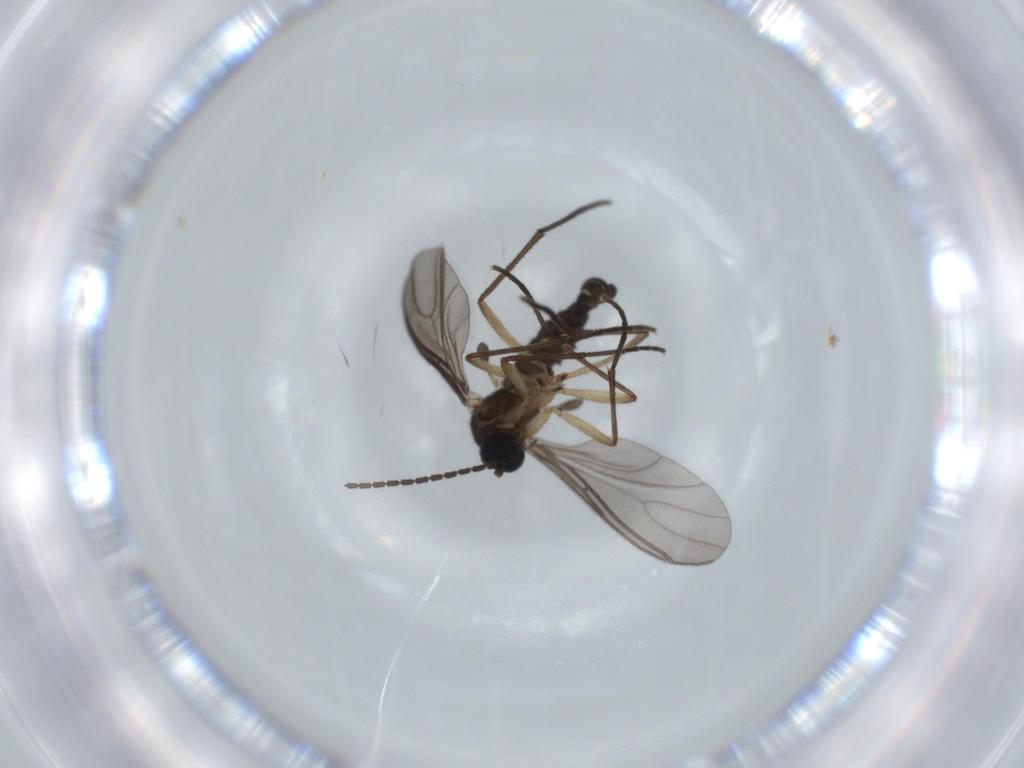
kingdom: Animalia
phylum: Arthropoda
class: Insecta
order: Diptera
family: Sciaridae
